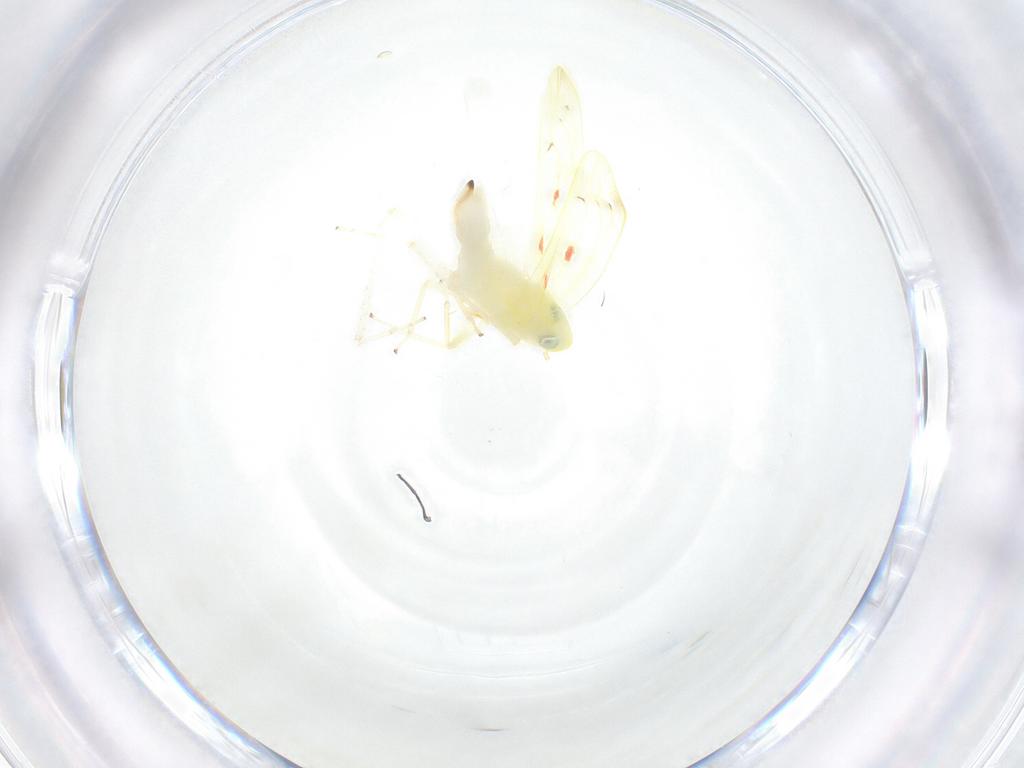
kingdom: Animalia
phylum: Arthropoda
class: Insecta
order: Hemiptera
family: Cicadellidae
